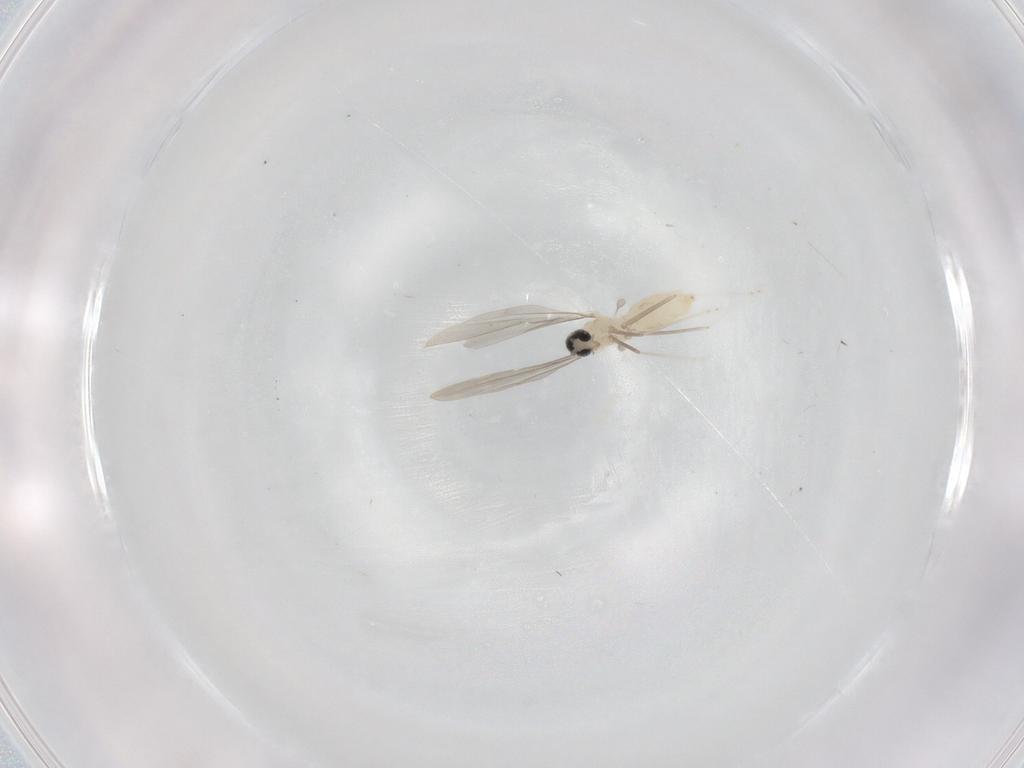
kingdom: Animalia
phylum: Arthropoda
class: Insecta
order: Diptera
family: Cecidomyiidae
